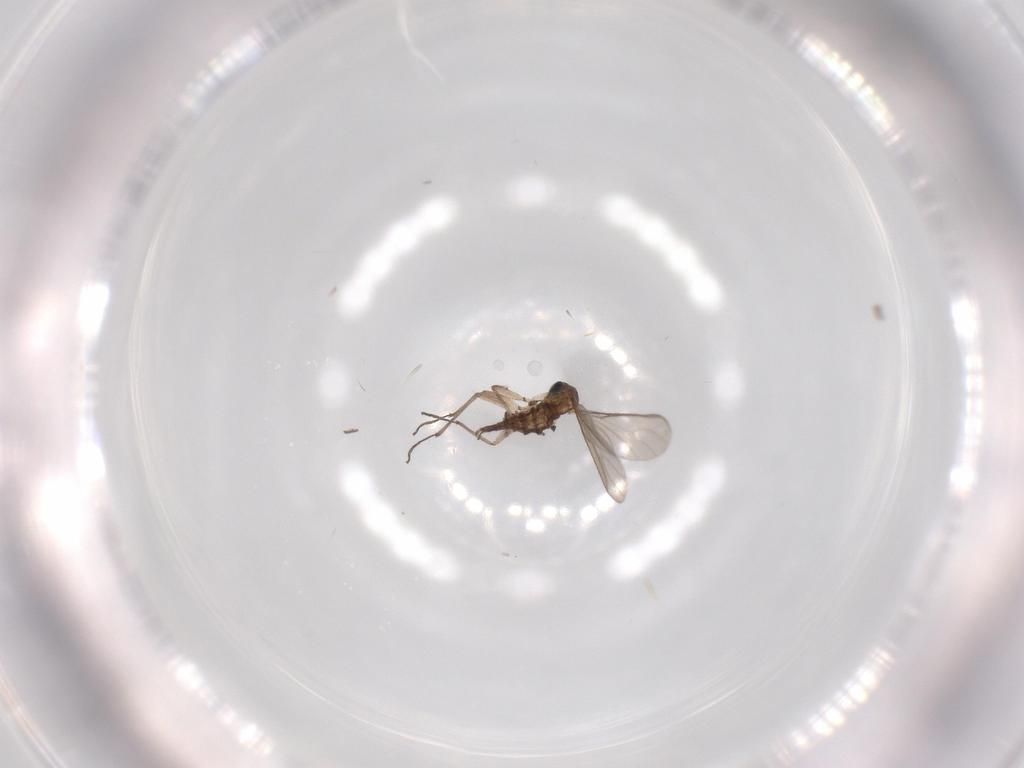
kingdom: Animalia
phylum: Arthropoda
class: Insecta
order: Diptera
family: Sciaridae
